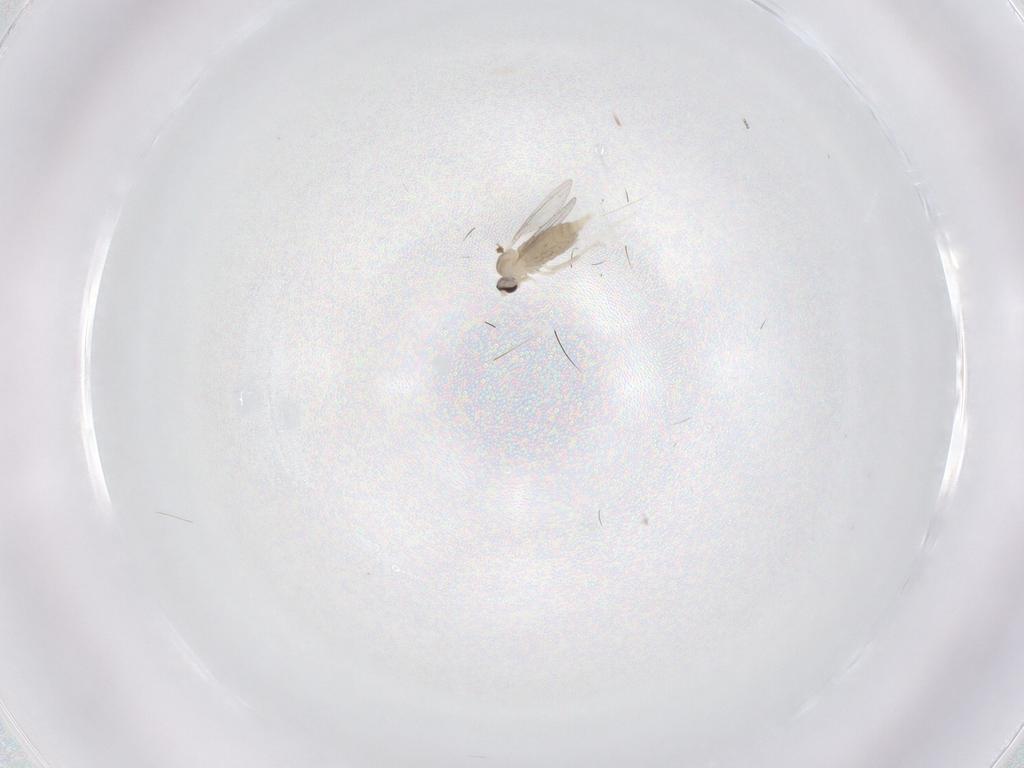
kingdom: Animalia
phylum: Arthropoda
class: Insecta
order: Diptera
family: Cecidomyiidae
